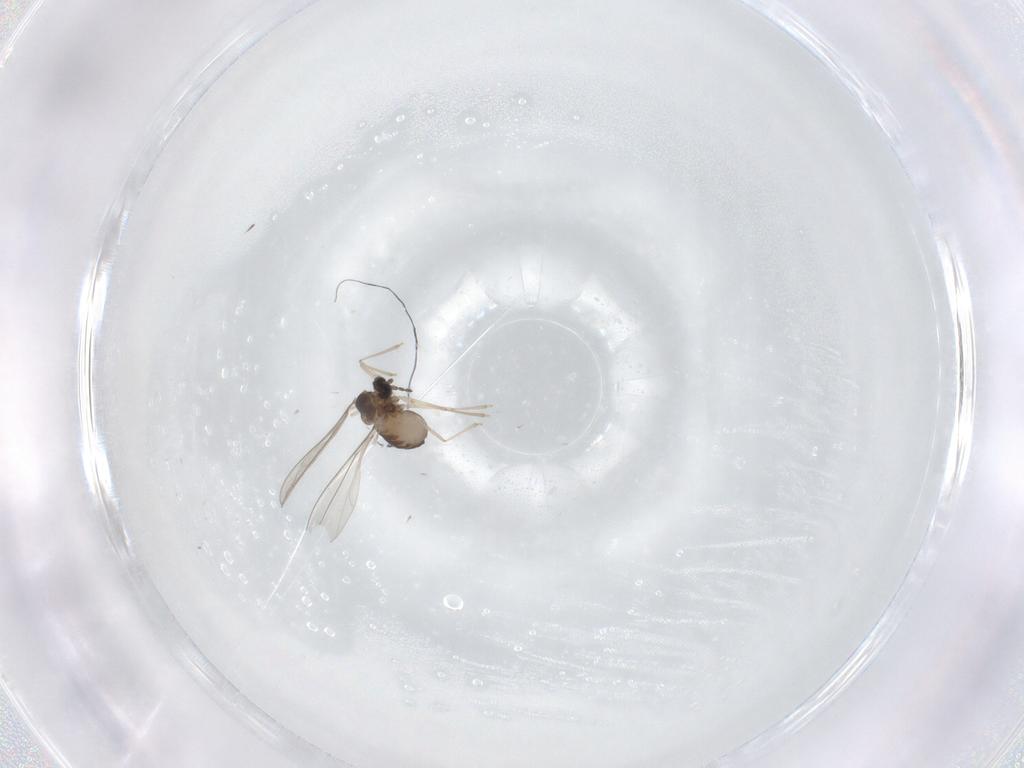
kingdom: Animalia
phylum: Arthropoda
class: Insecta
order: Diptera
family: Cecidomyiidae
